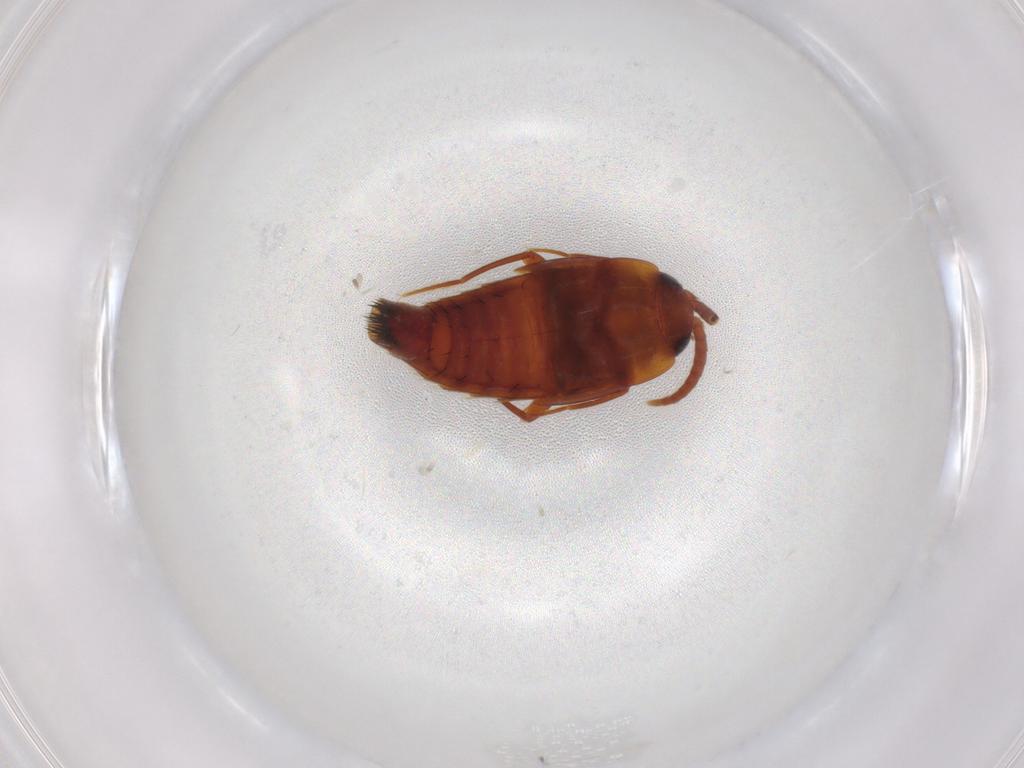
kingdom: Animalia
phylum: Arthropoda
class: Insecta
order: Coleoptera
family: Staphylinidae
